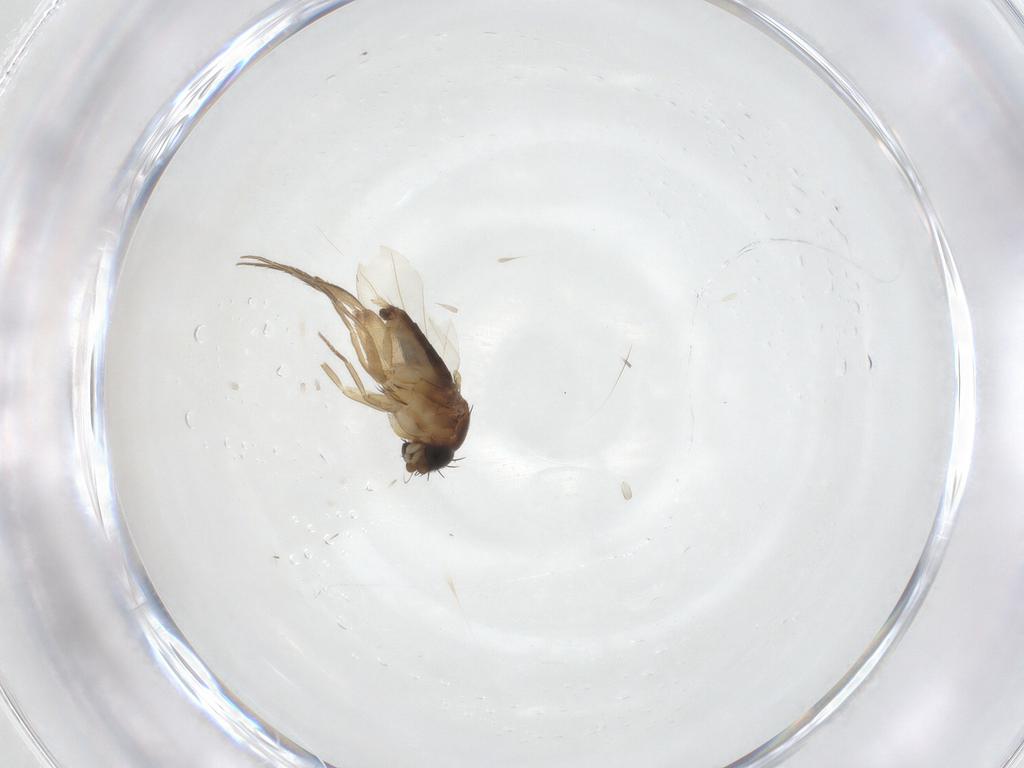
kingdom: Animalia
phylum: Arthropoda
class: Insecta
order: Diptera
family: Phoridae
